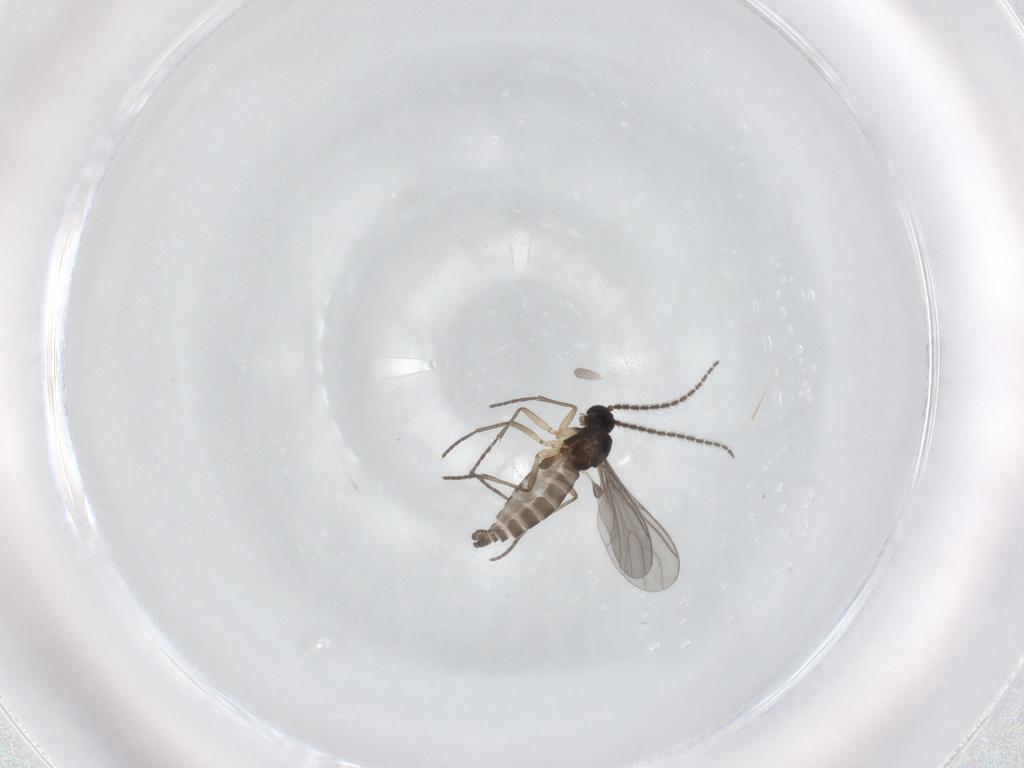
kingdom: Animalia
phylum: Arthropoda
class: Insecta
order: Diptera
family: Sciaridae
